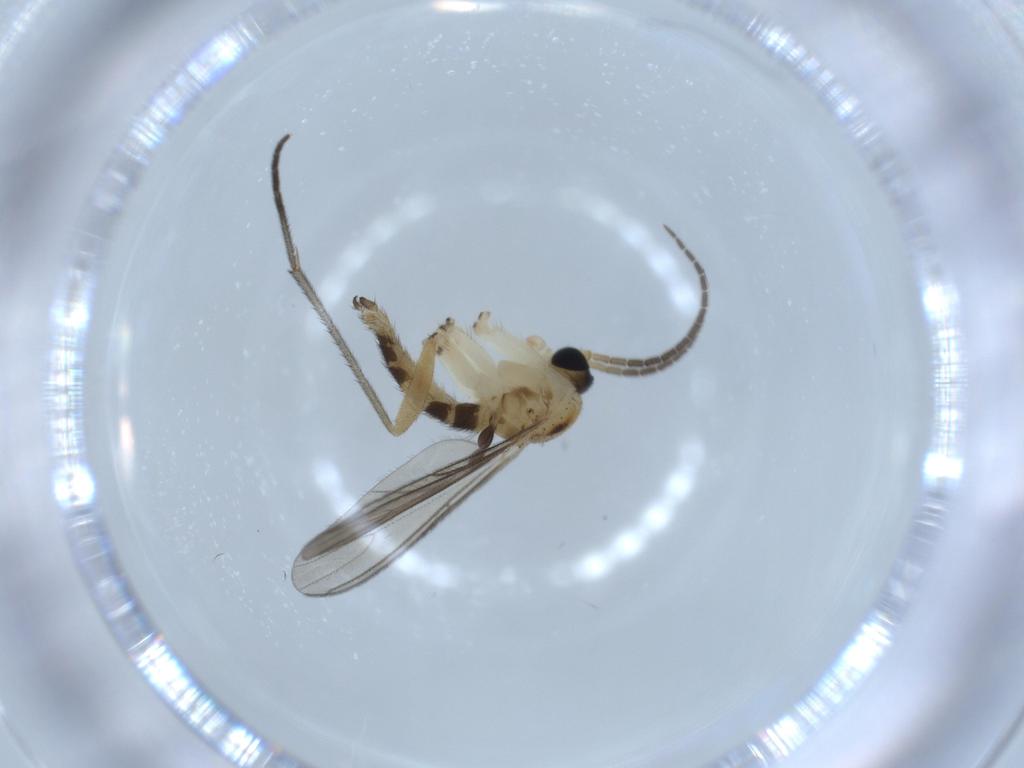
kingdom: Animalia
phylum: Arthropoda
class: Insecta
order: Diptera
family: Sciaridae
